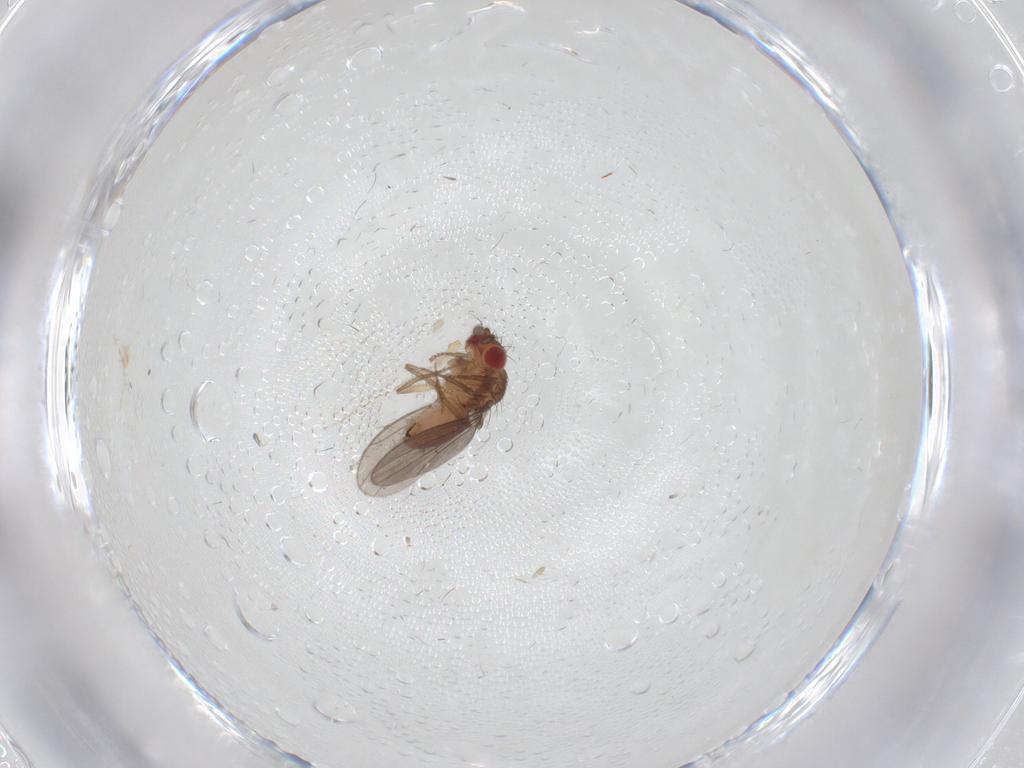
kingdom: Animalia
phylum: Arthropoda
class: Insecta
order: Diptera
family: Drosophilidae
